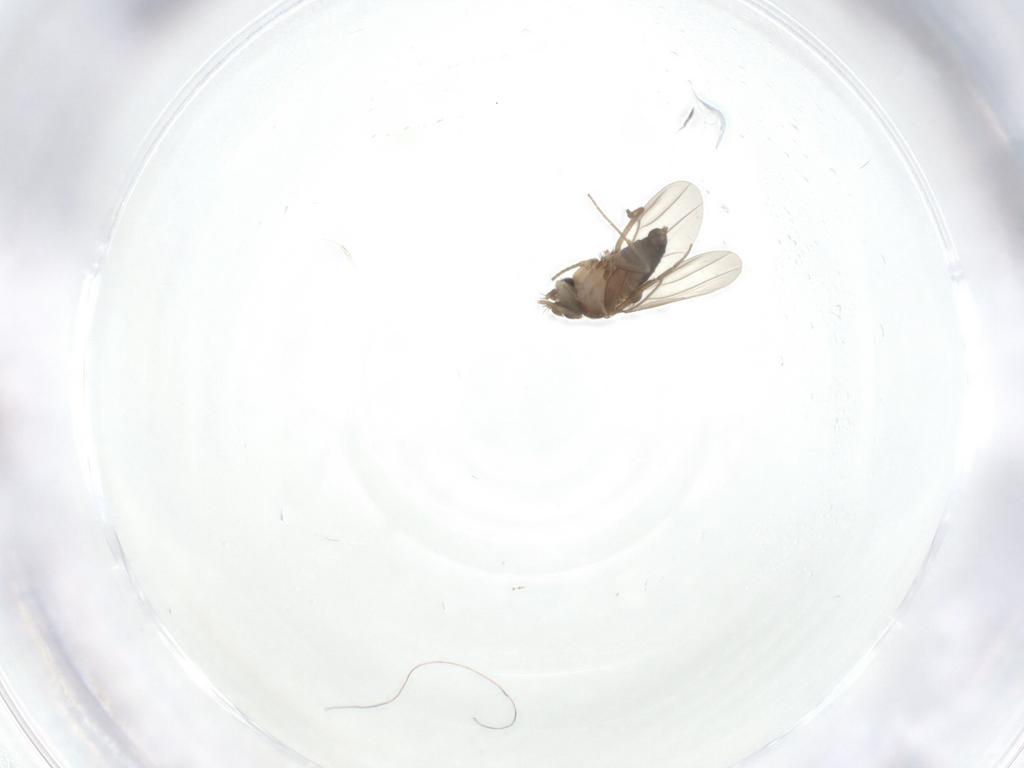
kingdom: Animalia
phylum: Arthropoda
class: Insecta
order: Diptera
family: Cecidomyiidae
